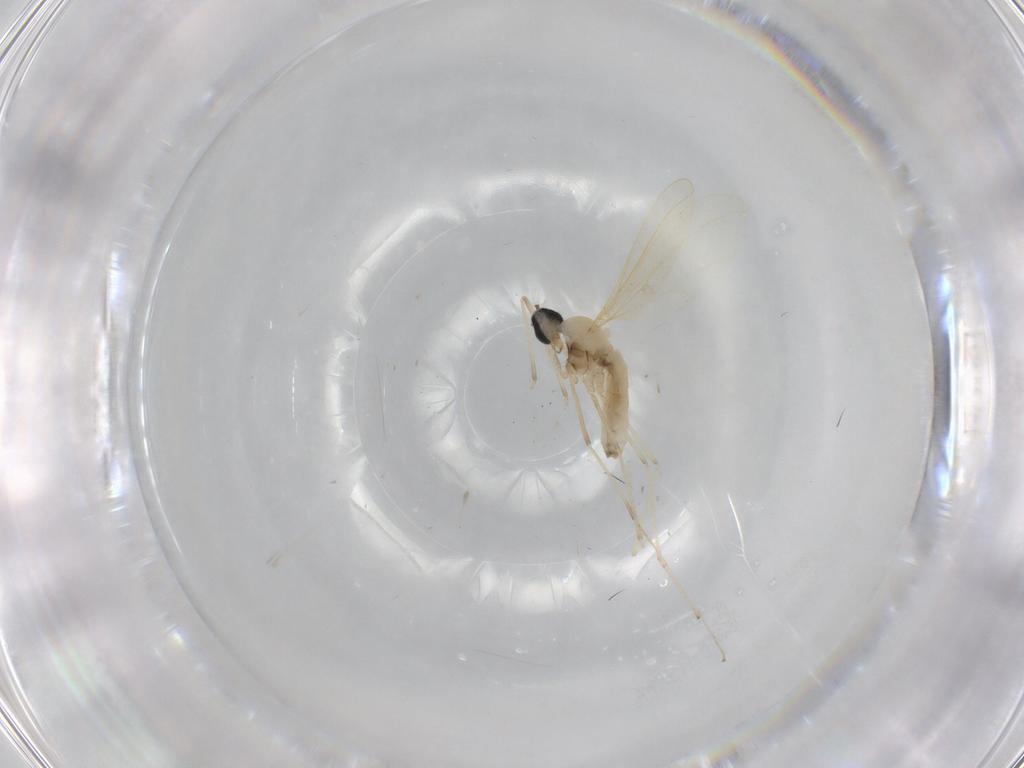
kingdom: Animalia
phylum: Arthropoda
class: Insecta
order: Diptera
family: Ceratopogonidae
